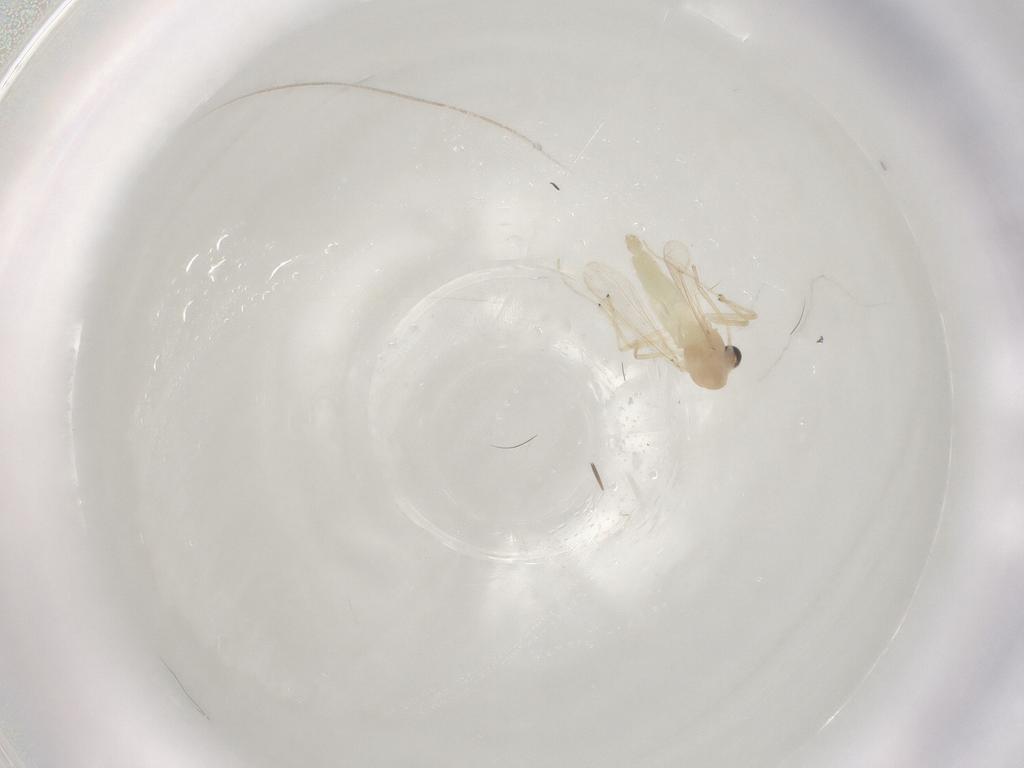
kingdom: Animalia
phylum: Arthropoda
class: Insecta
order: Diptera
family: Chironomidae
